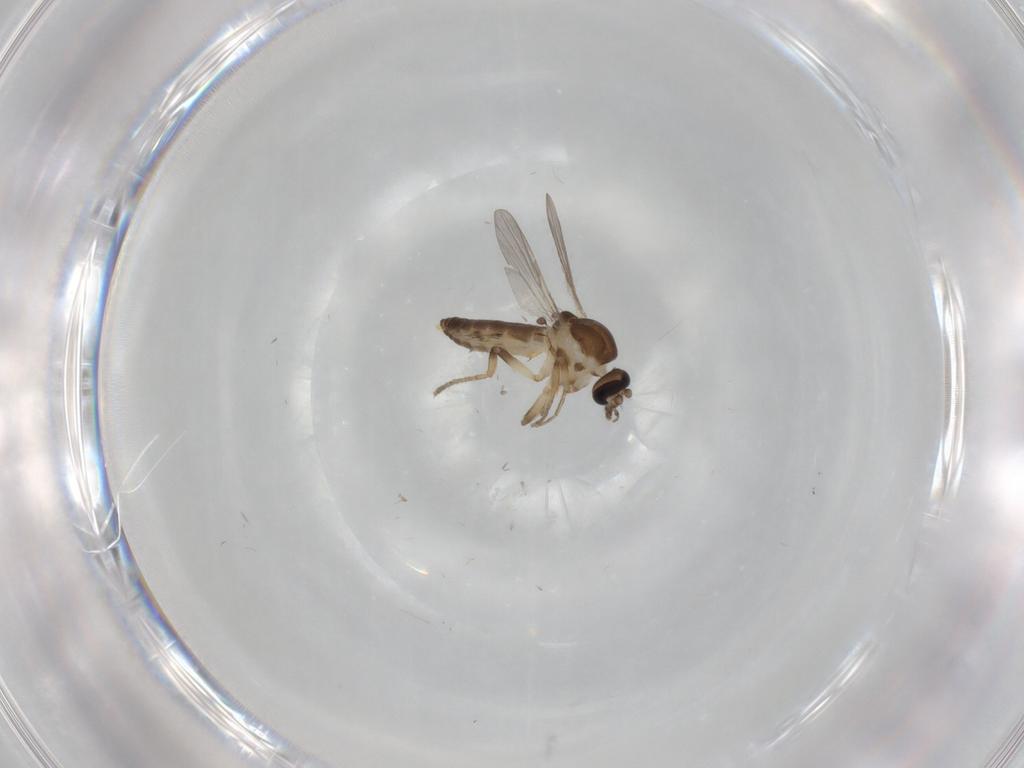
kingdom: Animalia
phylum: Arthropoda
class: Insecta
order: Diptera
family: Ceratopogonidae
